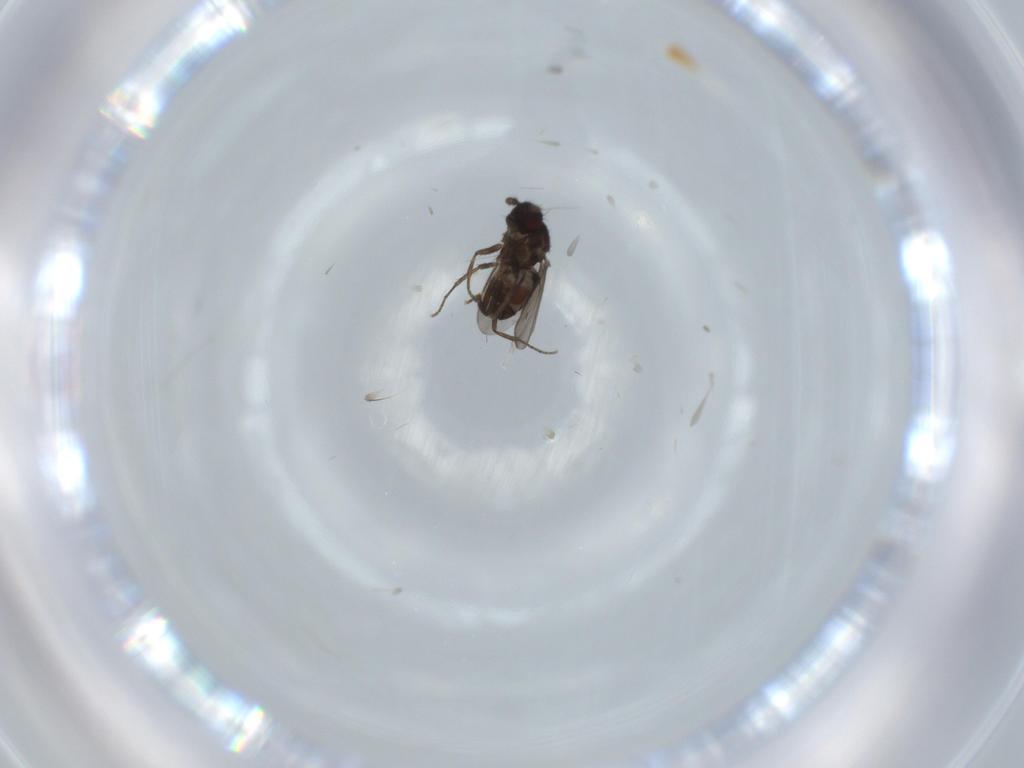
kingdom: Animalia
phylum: Arthropoda
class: Insecta
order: Diptera
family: Sphaeroceridae
